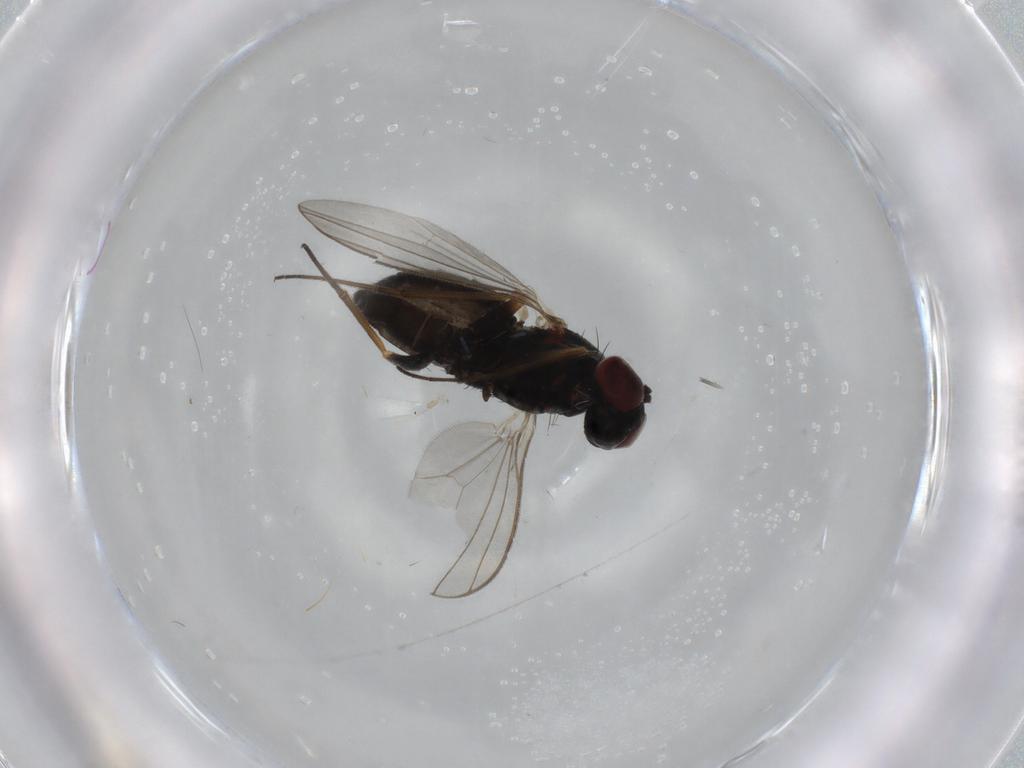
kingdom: Animalia
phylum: Arthropoda
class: Insecta
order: Diptera
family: Dolichopodidae
